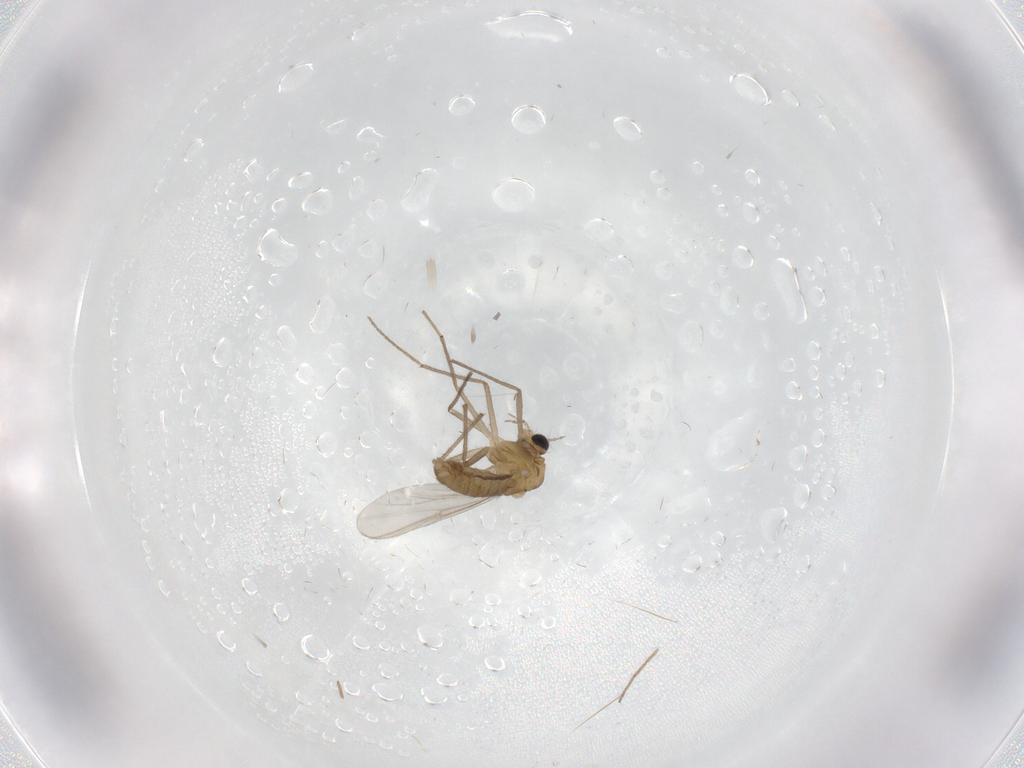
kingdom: Animalia
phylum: Arthropoda
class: Insecta
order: Diptera
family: Chironomidae
